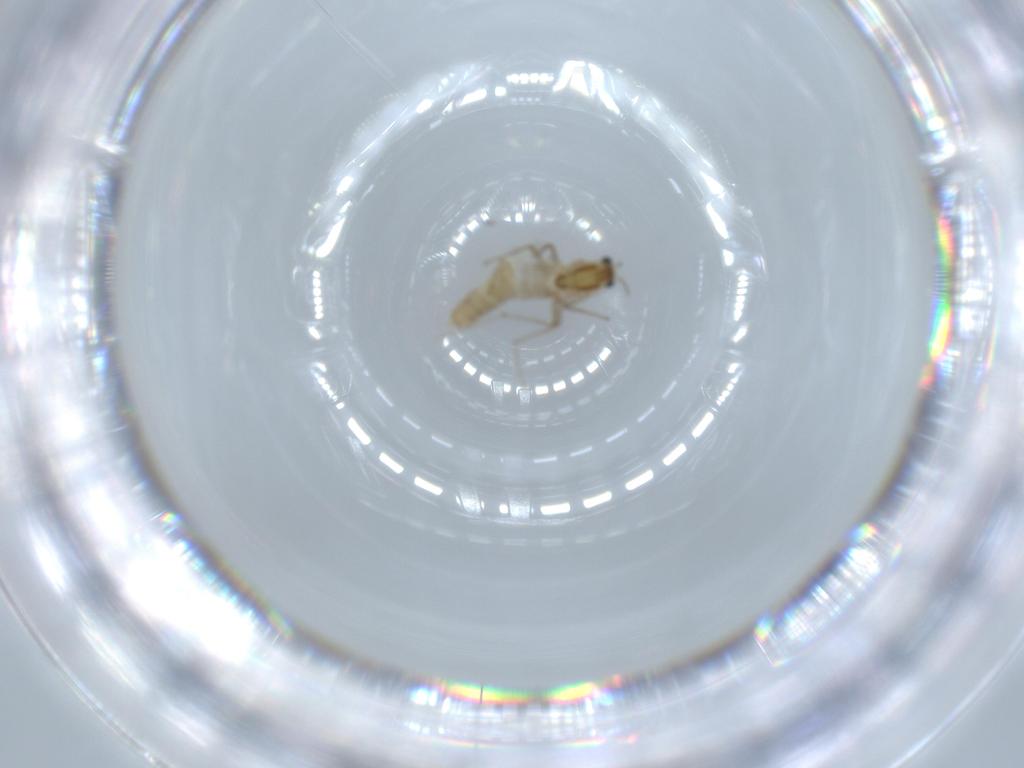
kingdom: Animalia
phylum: Arthropoda
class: Insecta
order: Diptera
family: Chironomidae
